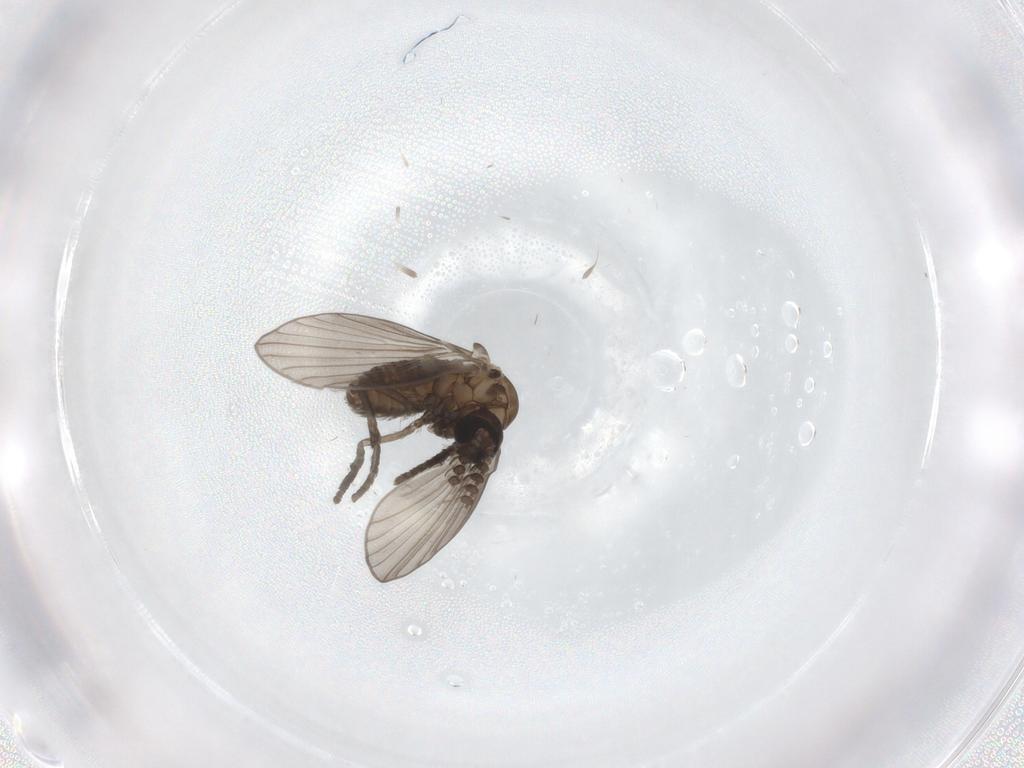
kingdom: Animalia
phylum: Arthropoda
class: Insecta
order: Diptera
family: Psychodidae
